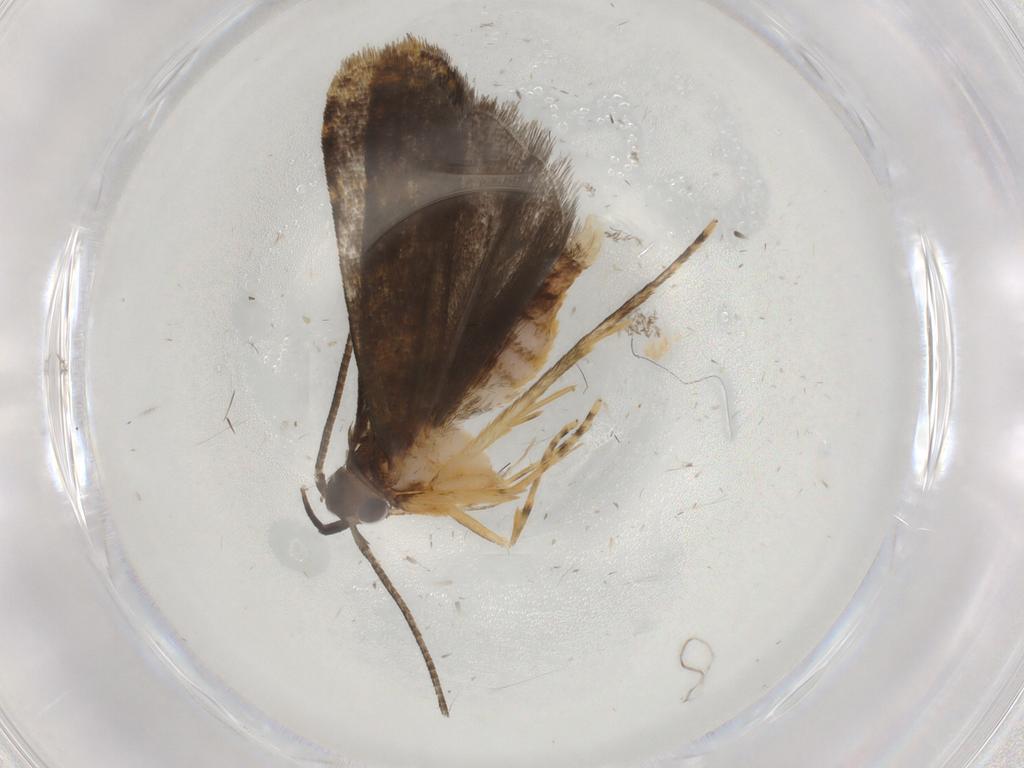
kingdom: Animalia
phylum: Arthropoda
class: Insecta
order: Lepidoptera
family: Cosmopterigidae
